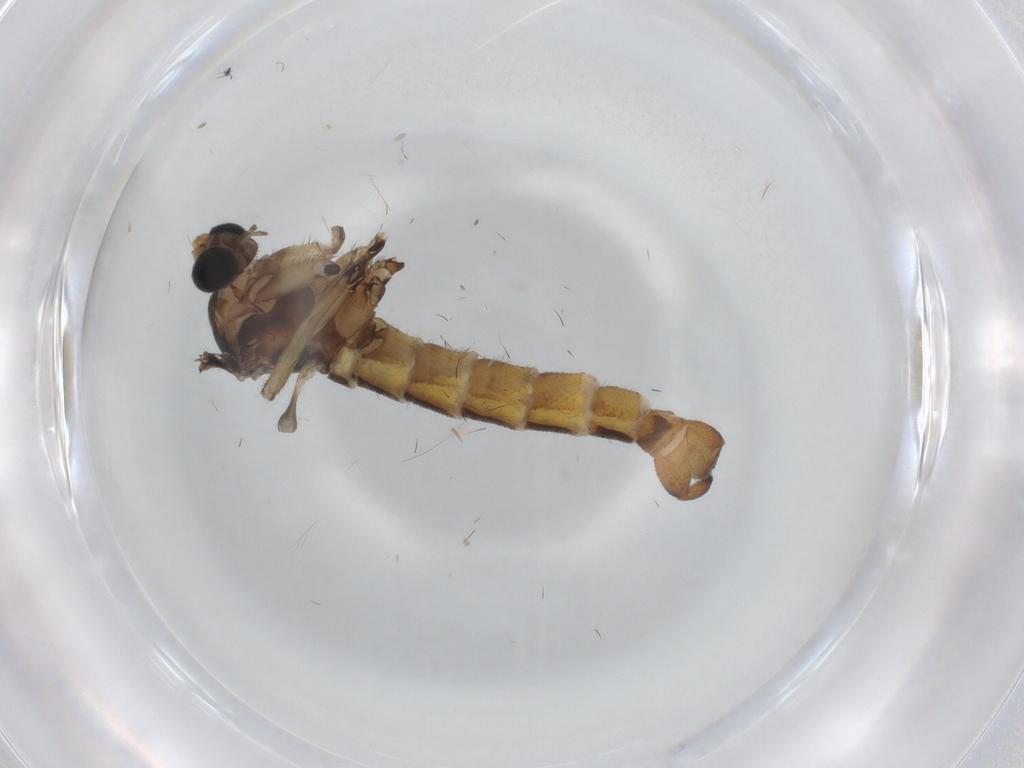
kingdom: Animalia
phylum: Arthropoda
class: Insecta
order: Diptera
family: Sciaridae
